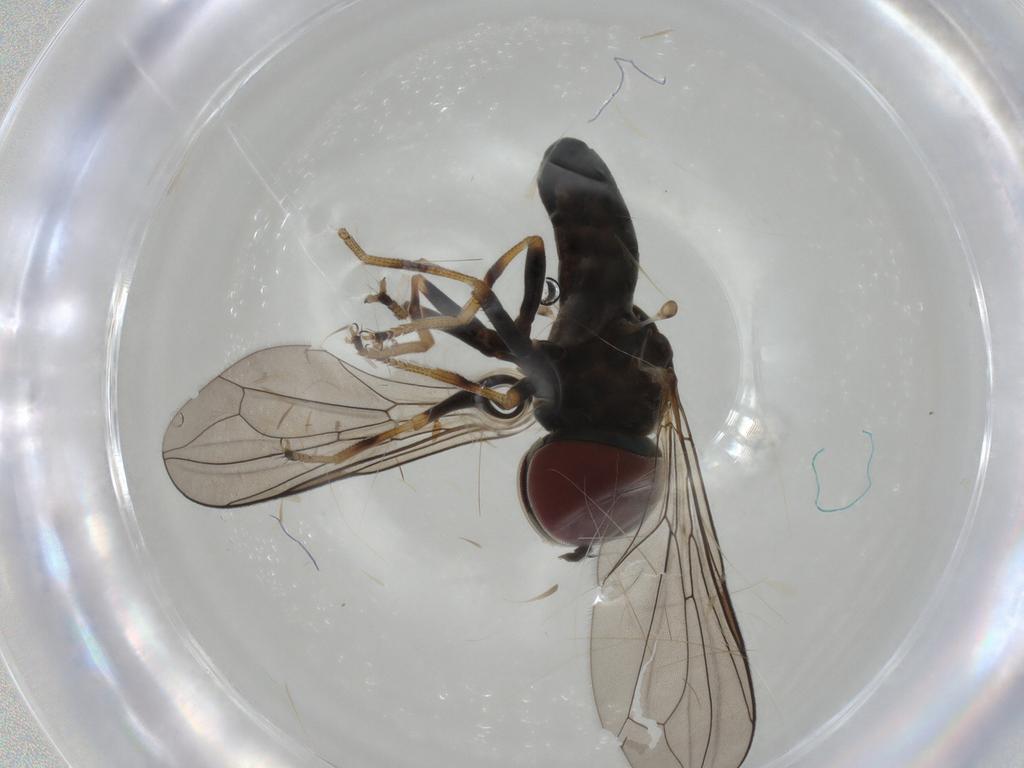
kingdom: Animalia
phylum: Arthropoda
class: Insecta
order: Diptera
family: Pipunculidae
